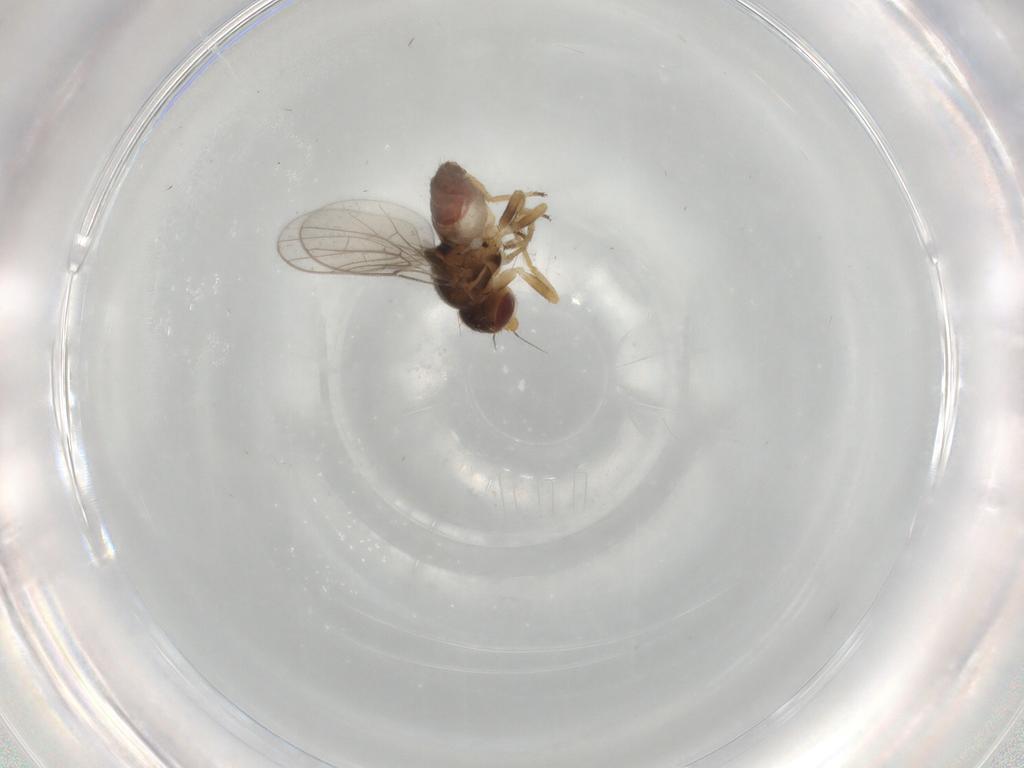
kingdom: Animalia
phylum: Arthropoda
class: Insecta
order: Diptera
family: Chloropidae
